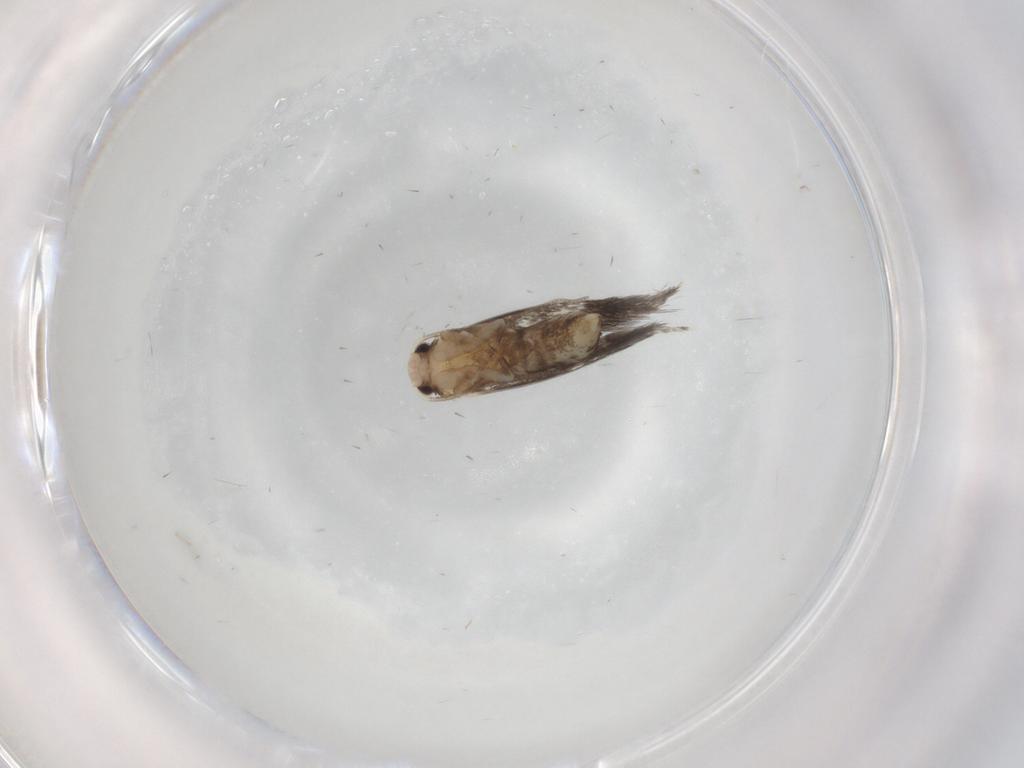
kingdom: Animalia
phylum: Arthropoda
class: Insecta
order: Lepidoptera
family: Tineidae
